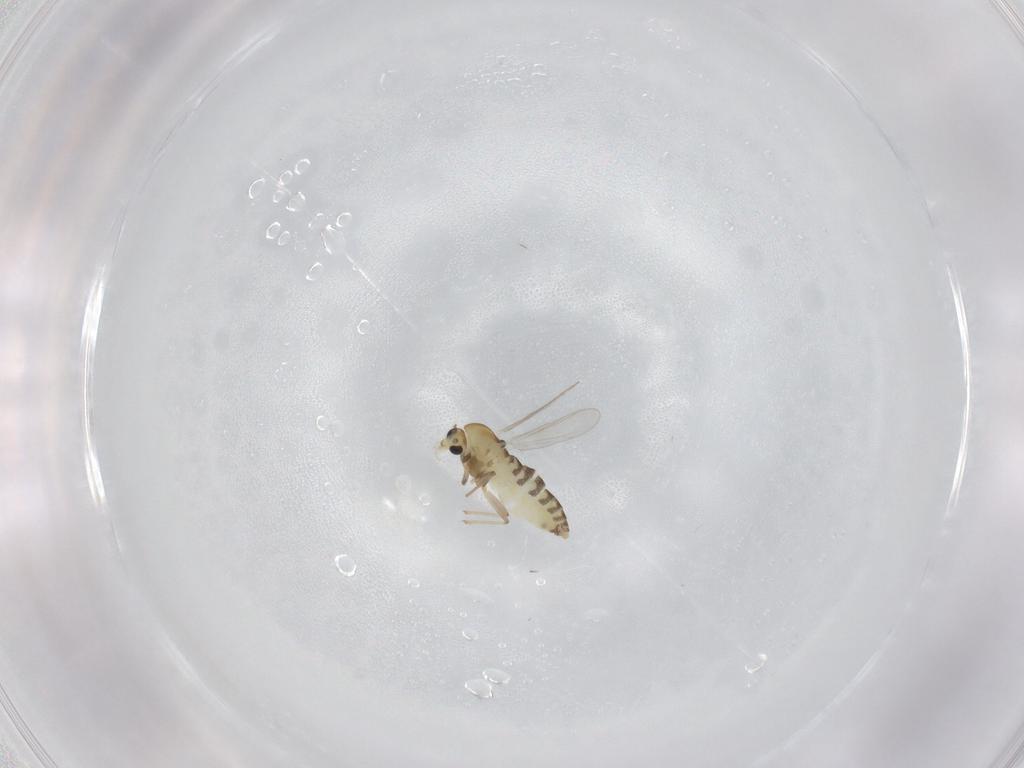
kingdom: Animalia
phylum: Arthropoda
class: Insecta
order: Diptera
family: Chironomidae
